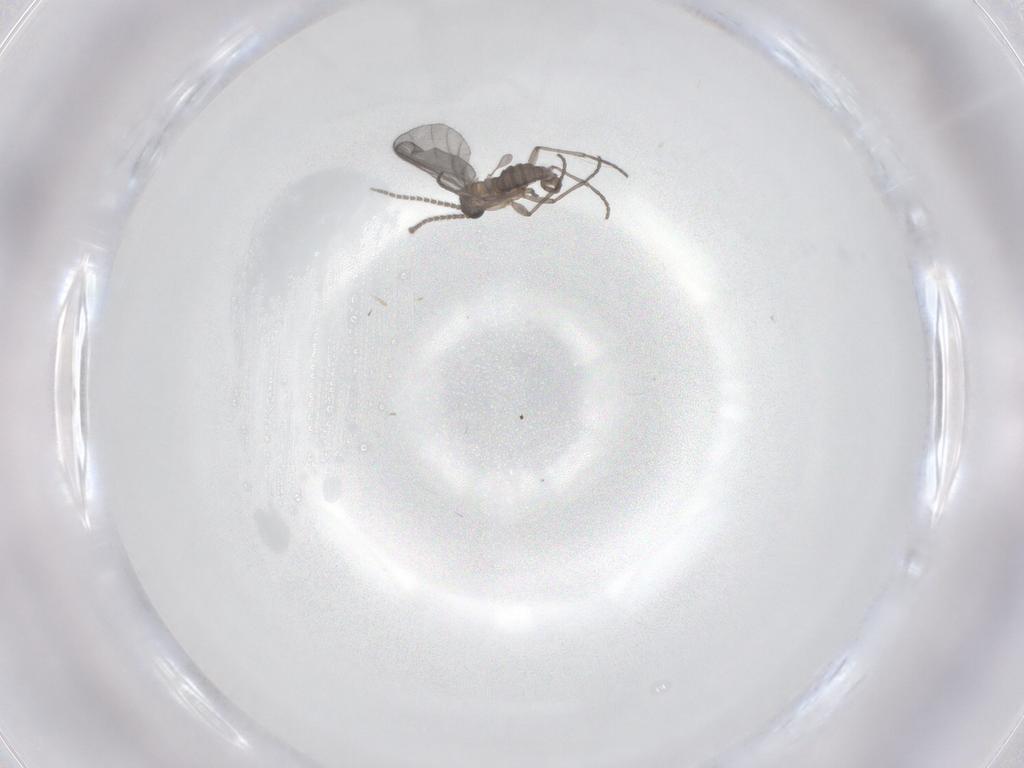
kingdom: Animalia
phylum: Arthropoda
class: Insecta
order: Diptera
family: Sciaridae
